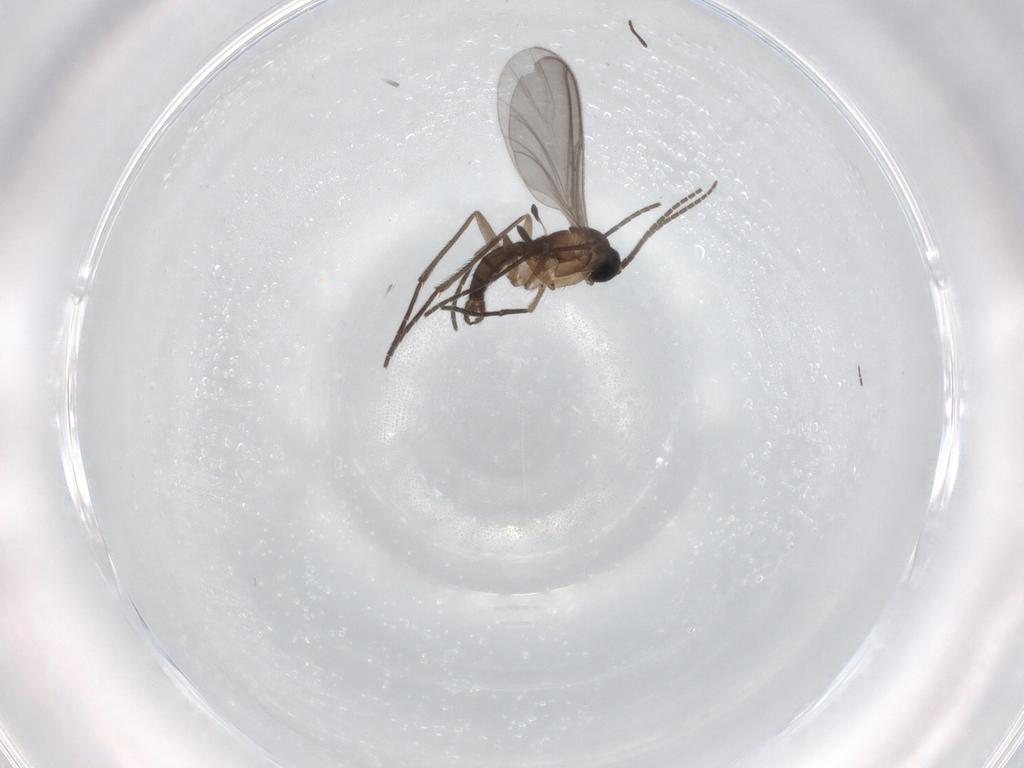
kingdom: Animalia
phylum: Arthropoda
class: Insecta
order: Diptera
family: Sciaridae
